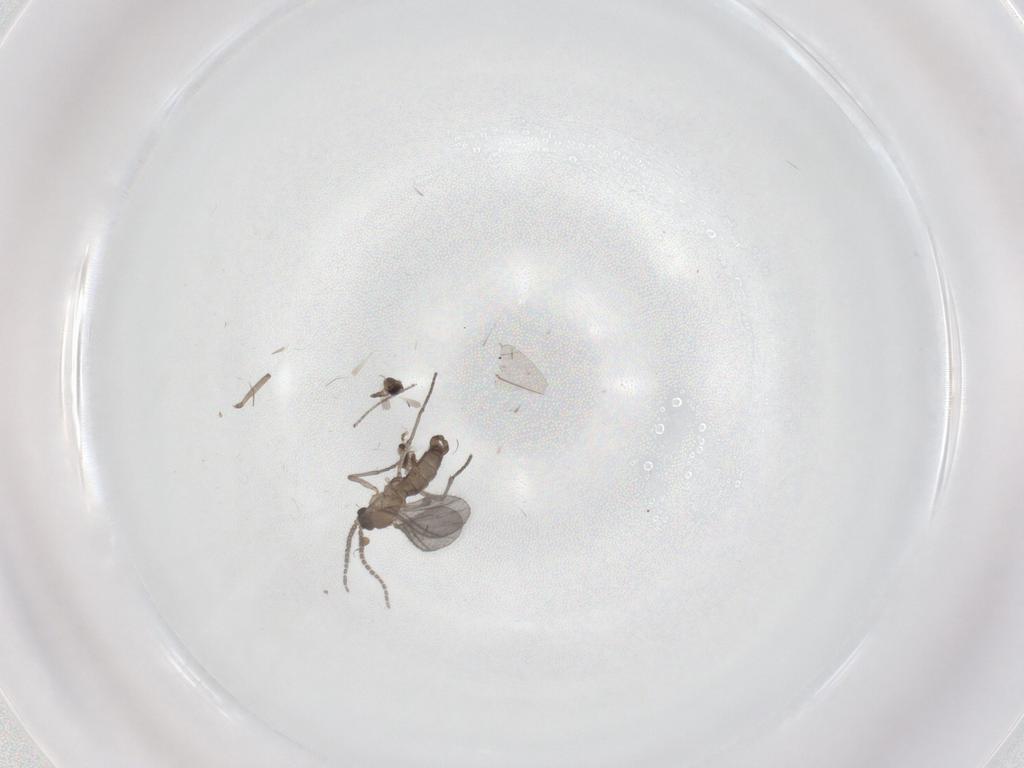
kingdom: Animalia
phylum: Arthropoda
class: Insecta
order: Diptera
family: Sciaridae
